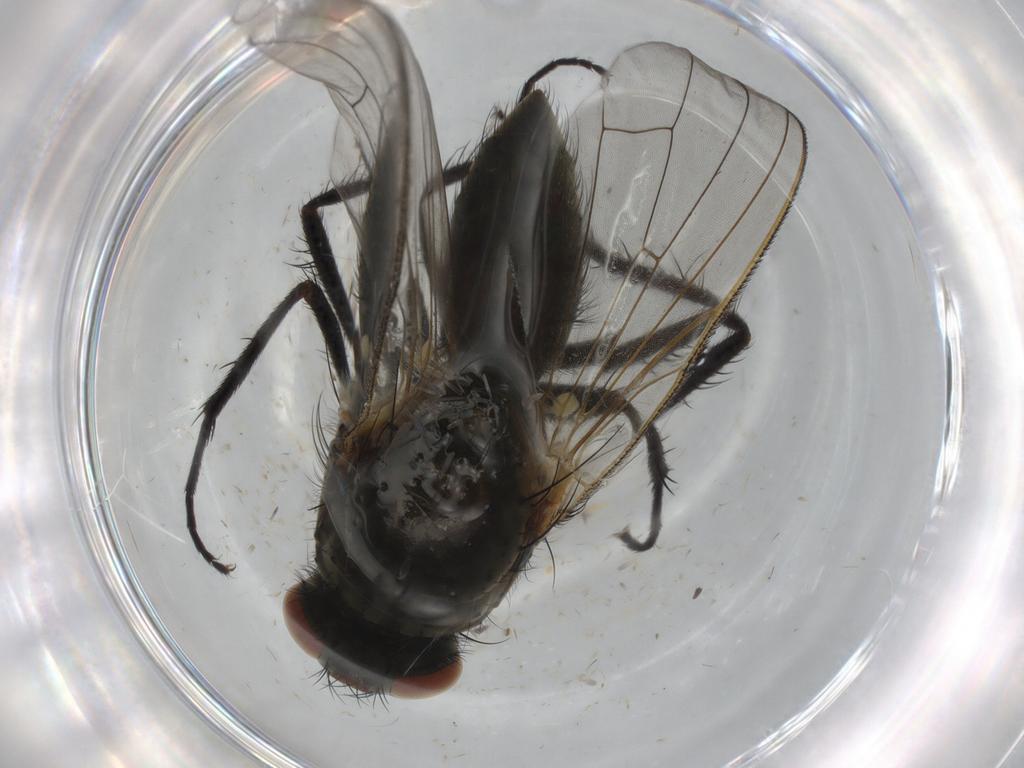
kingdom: Animalia
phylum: Arthropoda
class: Insecta
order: Diptera
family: Anthomyiidae
